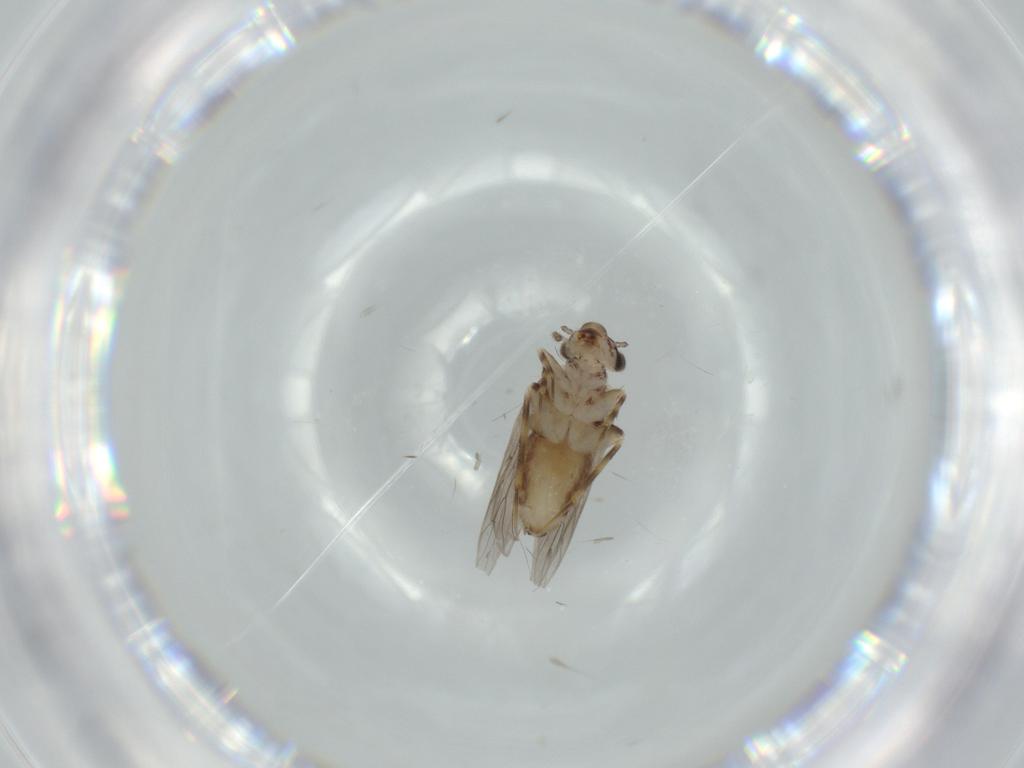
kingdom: Animalia
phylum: Arthropoda
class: Insecta
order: Psocodea
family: Lepidopsocidae
